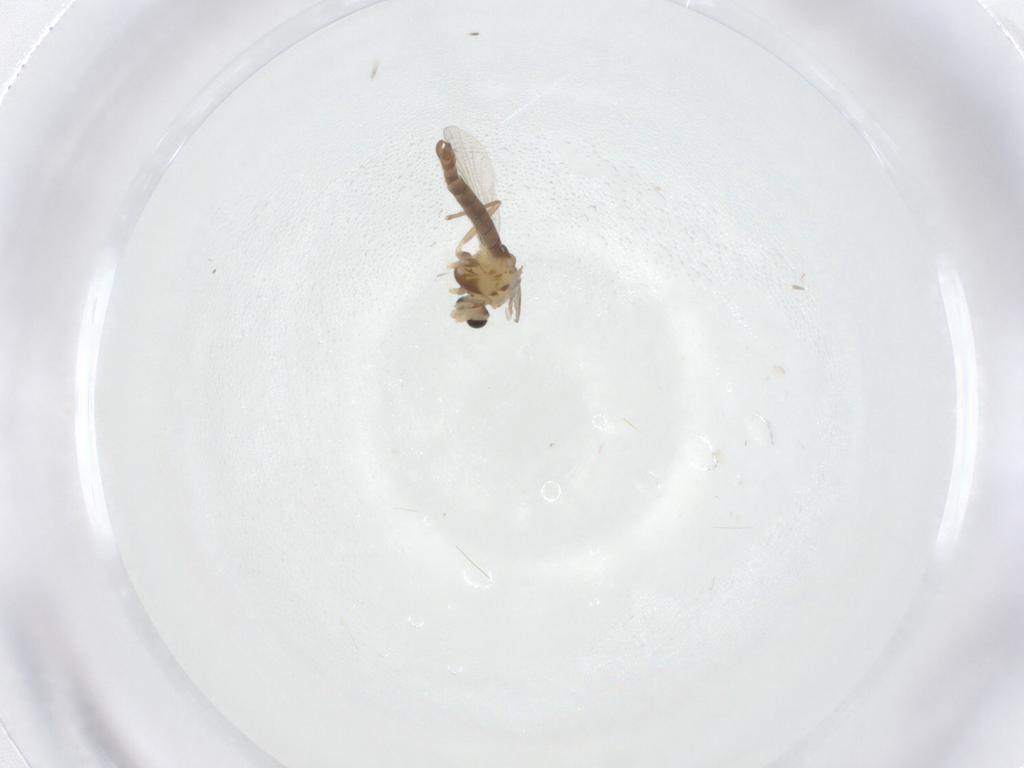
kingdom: Animalia
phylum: Arthropoda
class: Insecta
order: Diptera
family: Chironomidae
